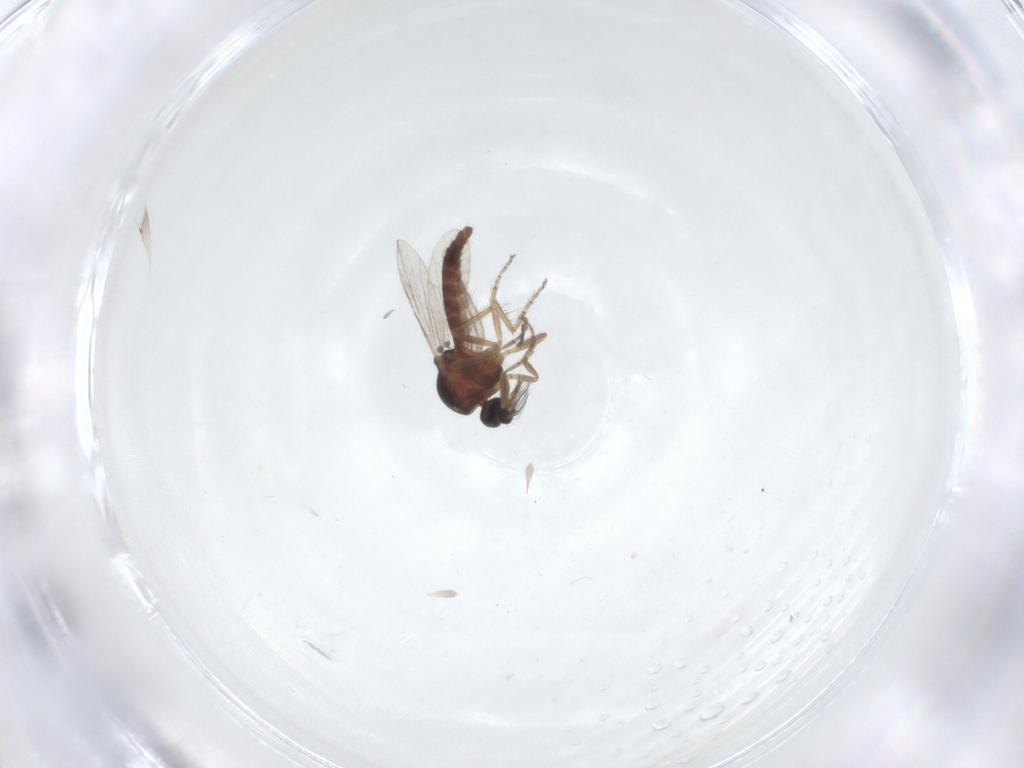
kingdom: Animalia
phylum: Arthropoda
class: Insecta
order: Diptera
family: Ceratopogonidae
